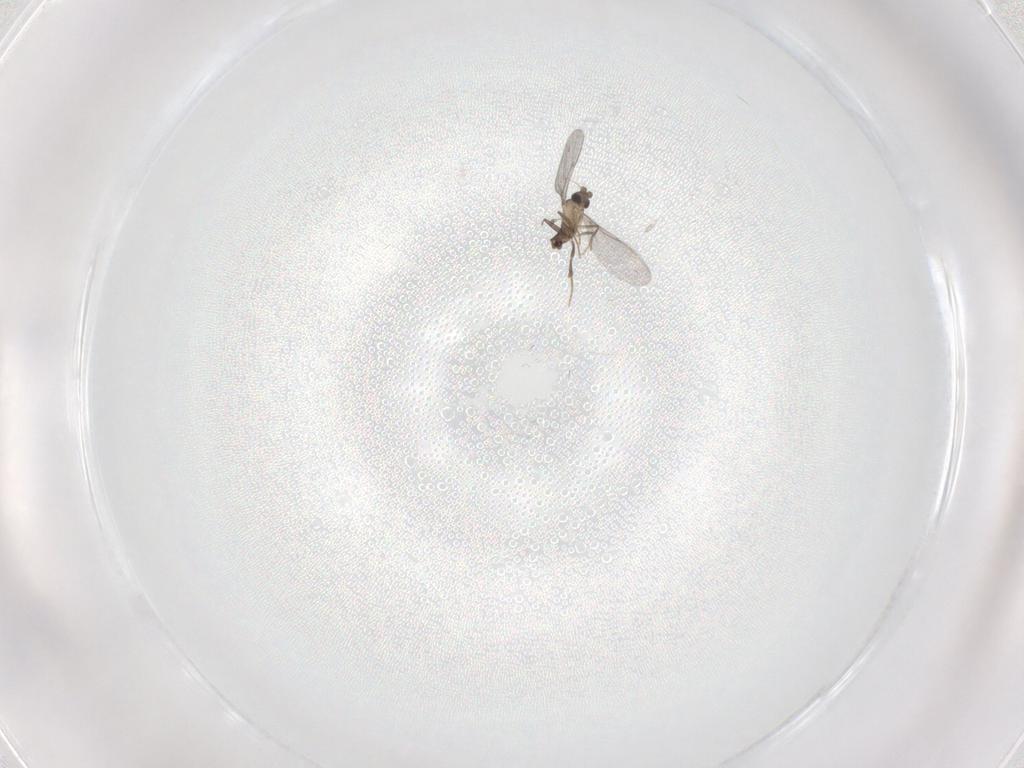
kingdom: Animalia
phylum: Arthropoda
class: Insecta
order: Diptera
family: Phoridae
